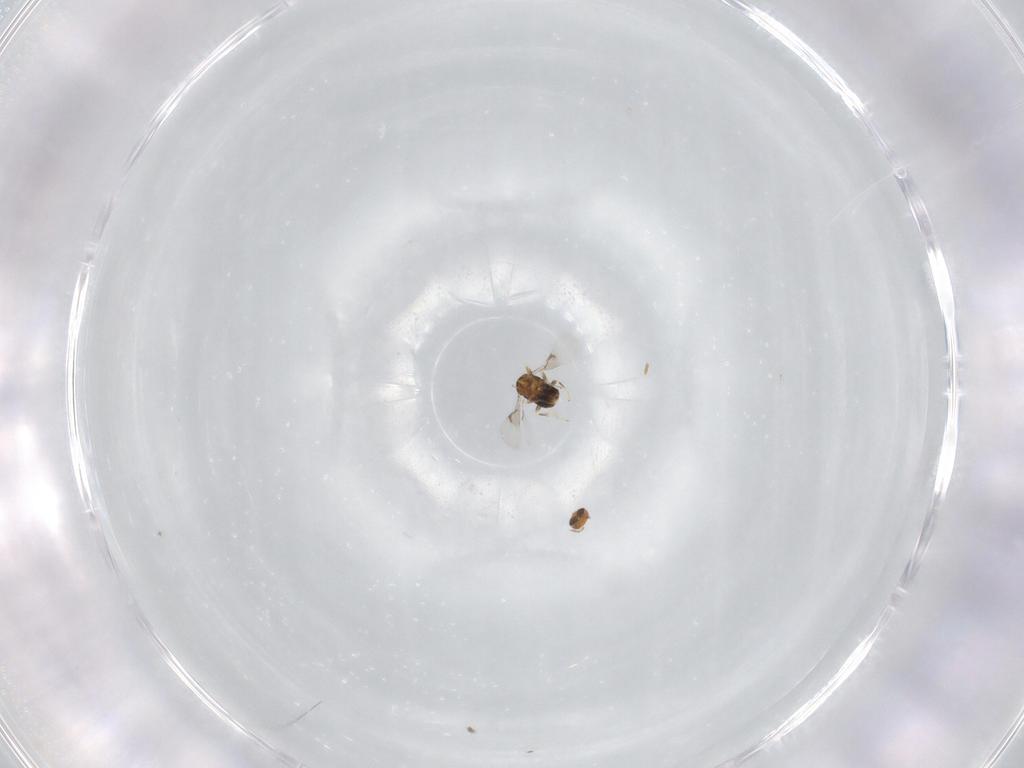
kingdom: Animalia
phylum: Arthropoda
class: Insecta
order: Hymenoptera
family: Trichogrammatidae
